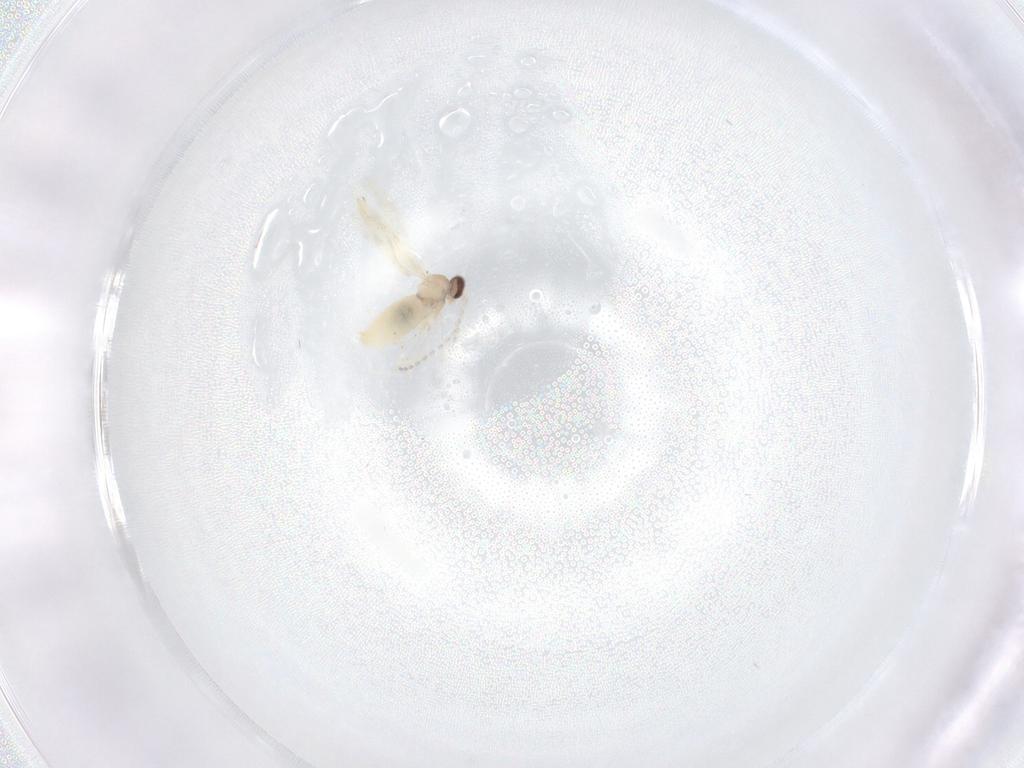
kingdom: Animalia
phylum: Arthropoda
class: Insecta
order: Diptera
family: Cecidomyiidae
